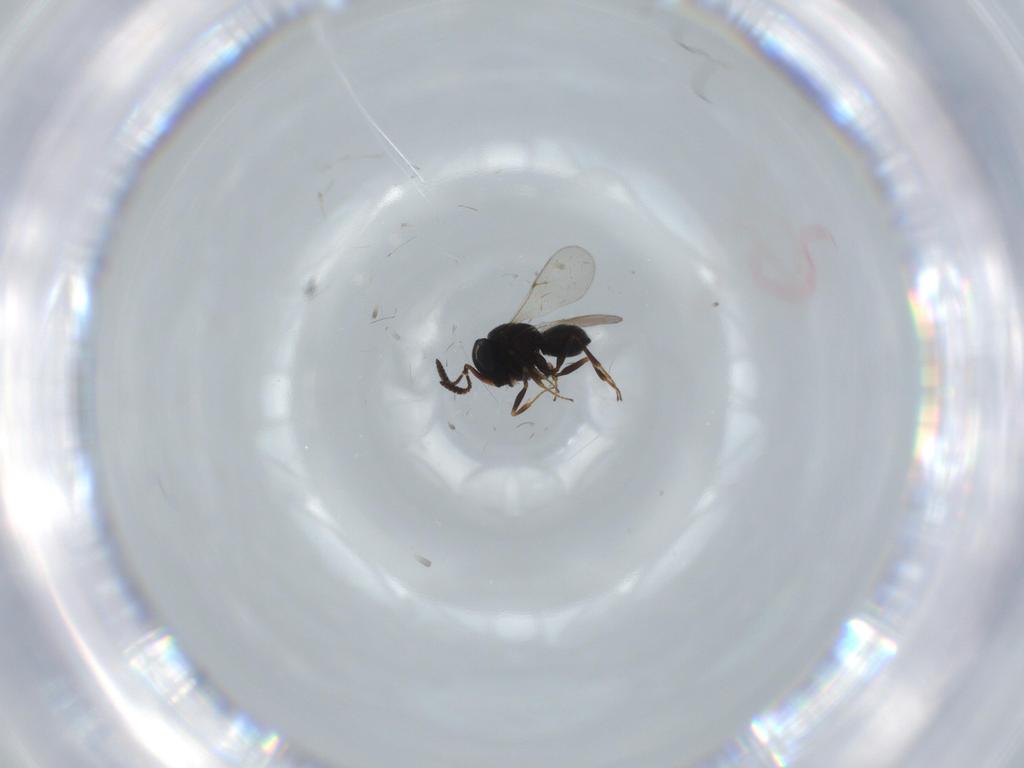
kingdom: Animalia
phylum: Arthropoda
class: Insecta
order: Hymenoptera
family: Scelionidae
